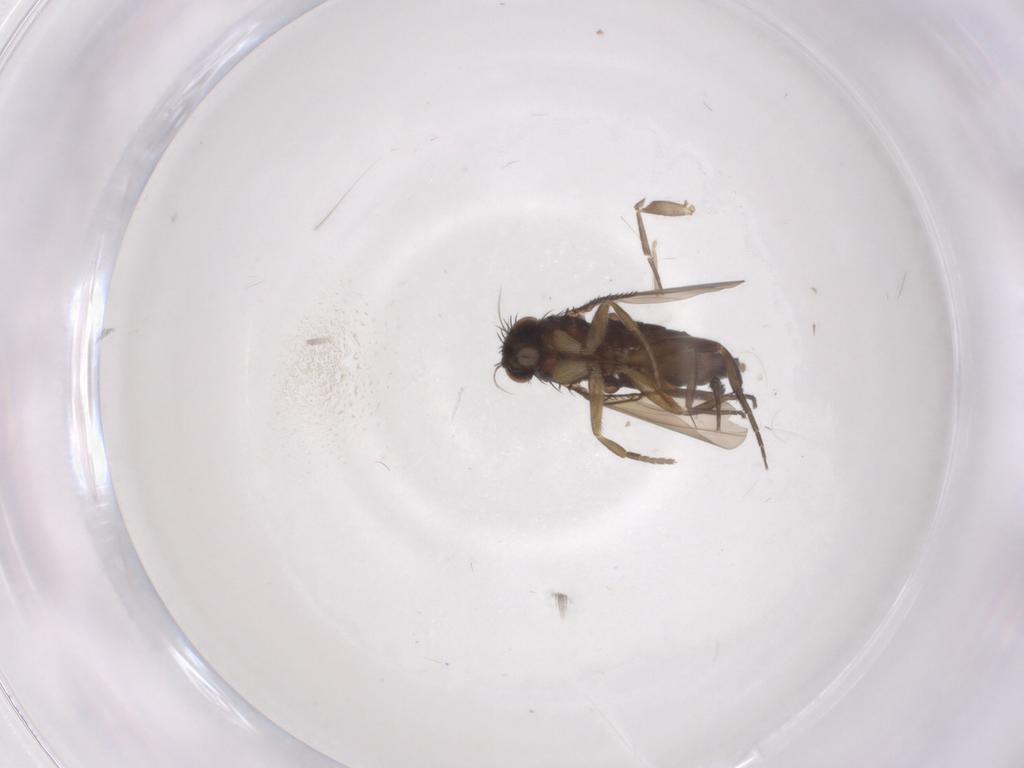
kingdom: Animalia
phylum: Arthropoda
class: Insecta
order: Diptera
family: Phoridae
